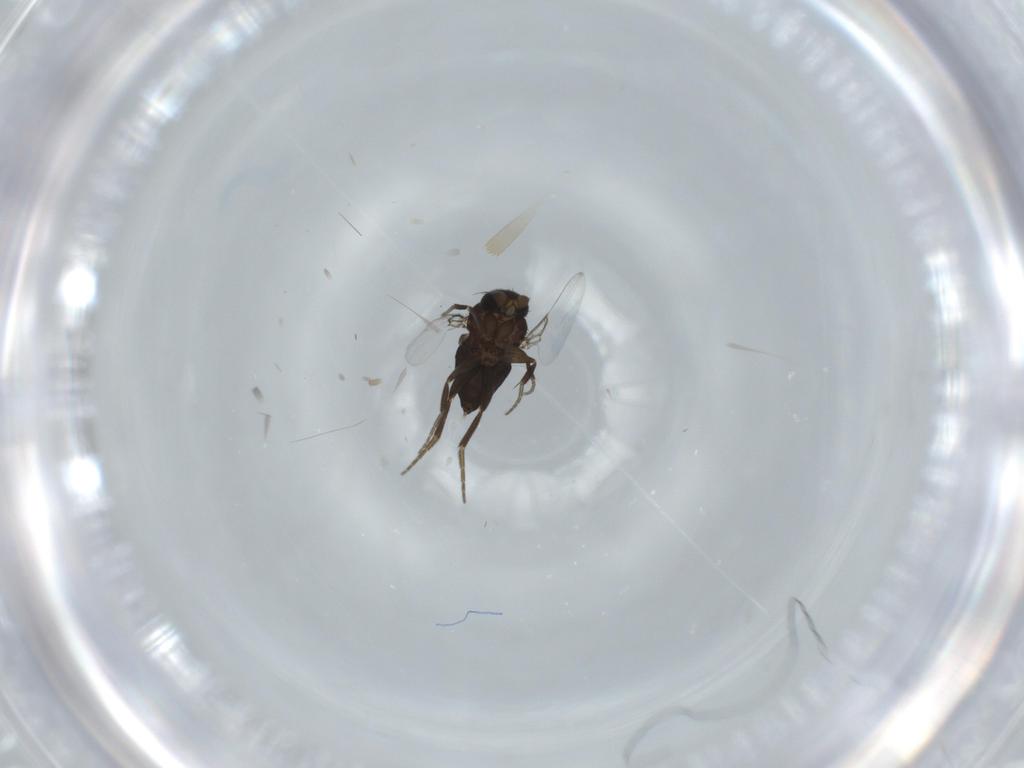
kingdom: Animalia
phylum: Arthropoda
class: Insecta
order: Diptera
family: Phoridae
